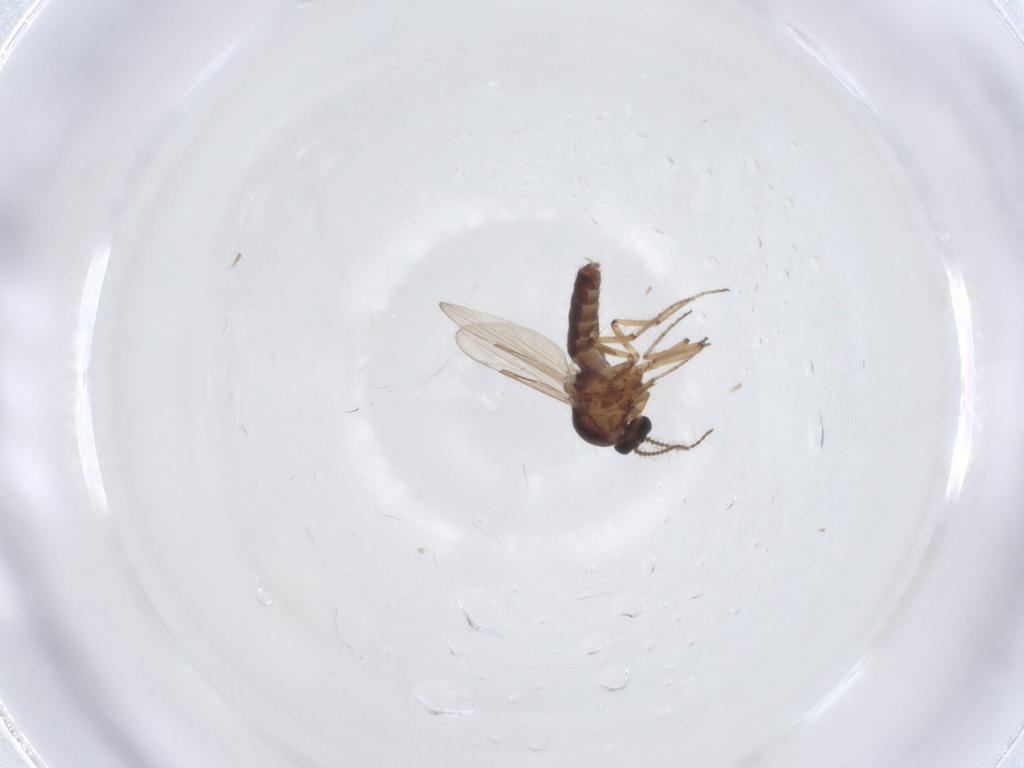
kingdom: Animalia
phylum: Arthropoda
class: Insecta
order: Diptera
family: Ceratopogonidae
